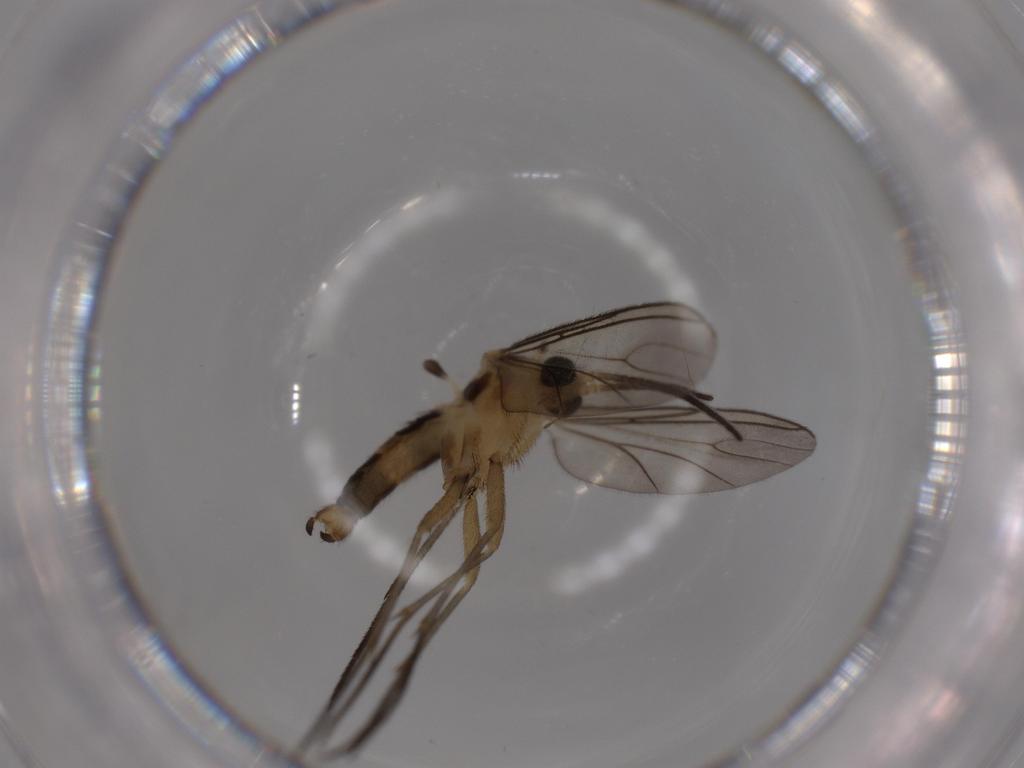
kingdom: Animalia
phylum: Arthropoda
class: Insecta
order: Diptera
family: Sciaridae
